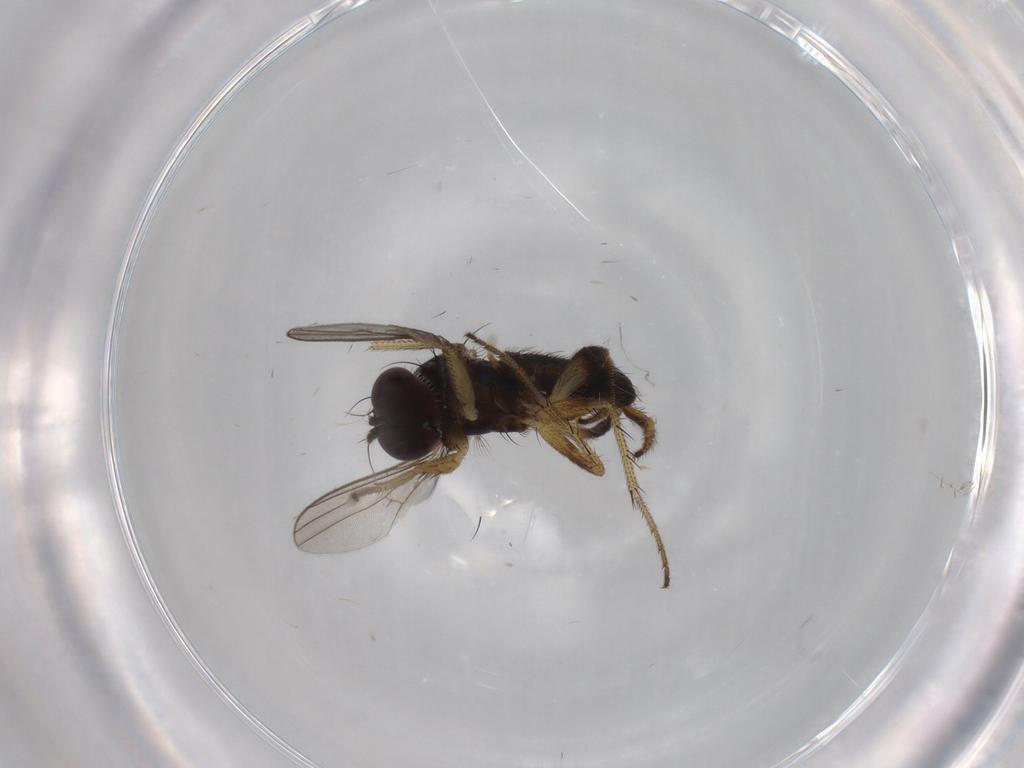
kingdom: Animalia
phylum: Arthropoda
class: Insecta
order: Diptera
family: Dolichopodidae
